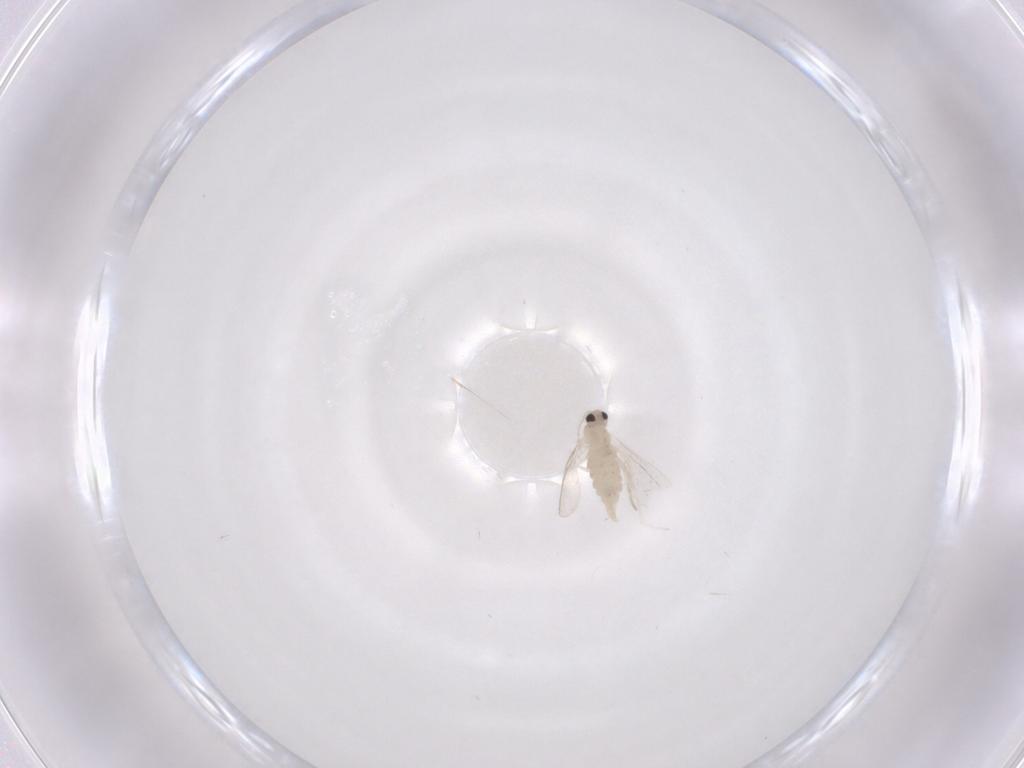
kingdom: Animalia
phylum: Arthropoda
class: Insecta
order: Diptera
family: Cecidomyiidae
